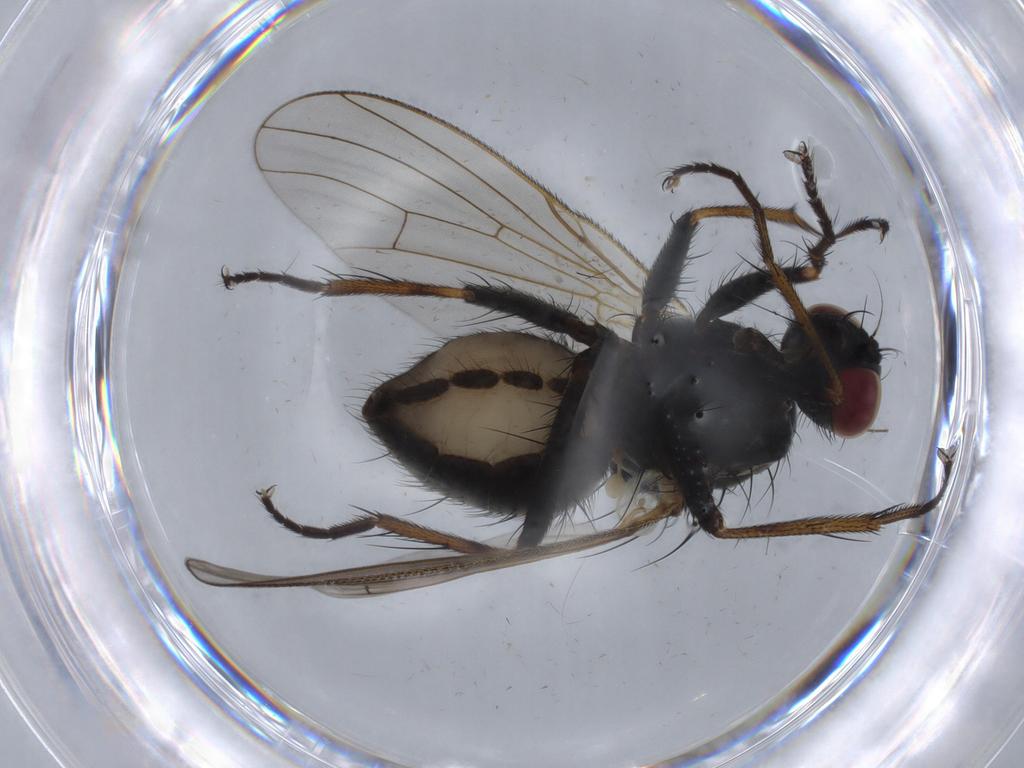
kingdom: Animalia
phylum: Arthropoda
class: Insecta
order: Diptera
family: Muscidae
